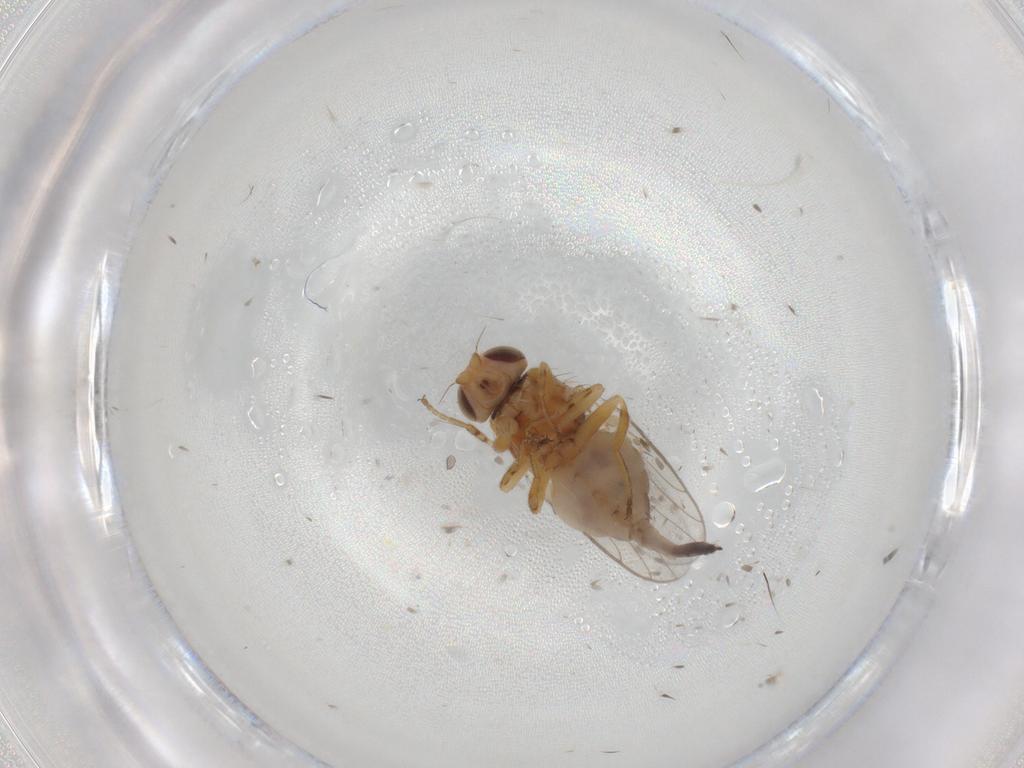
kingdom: Animalia
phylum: Arthropoda
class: Insecta
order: Diptera
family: Chloropidae
